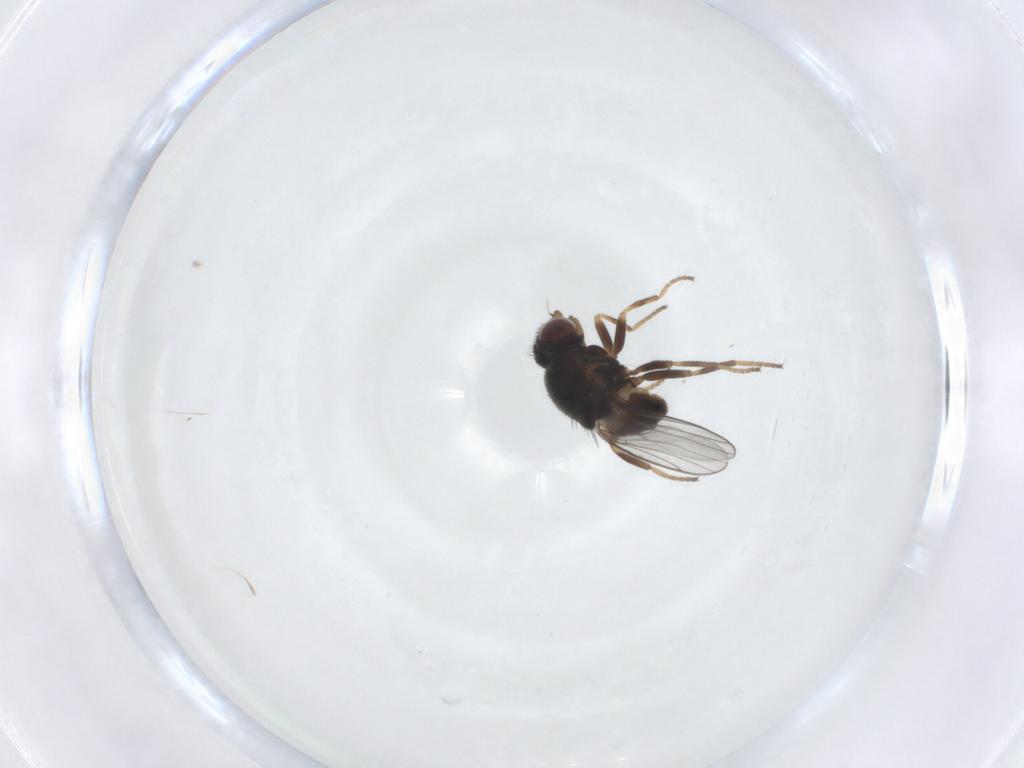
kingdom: Animalia
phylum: Arthropoda
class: Insecta
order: Diptera
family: Chloropidae
